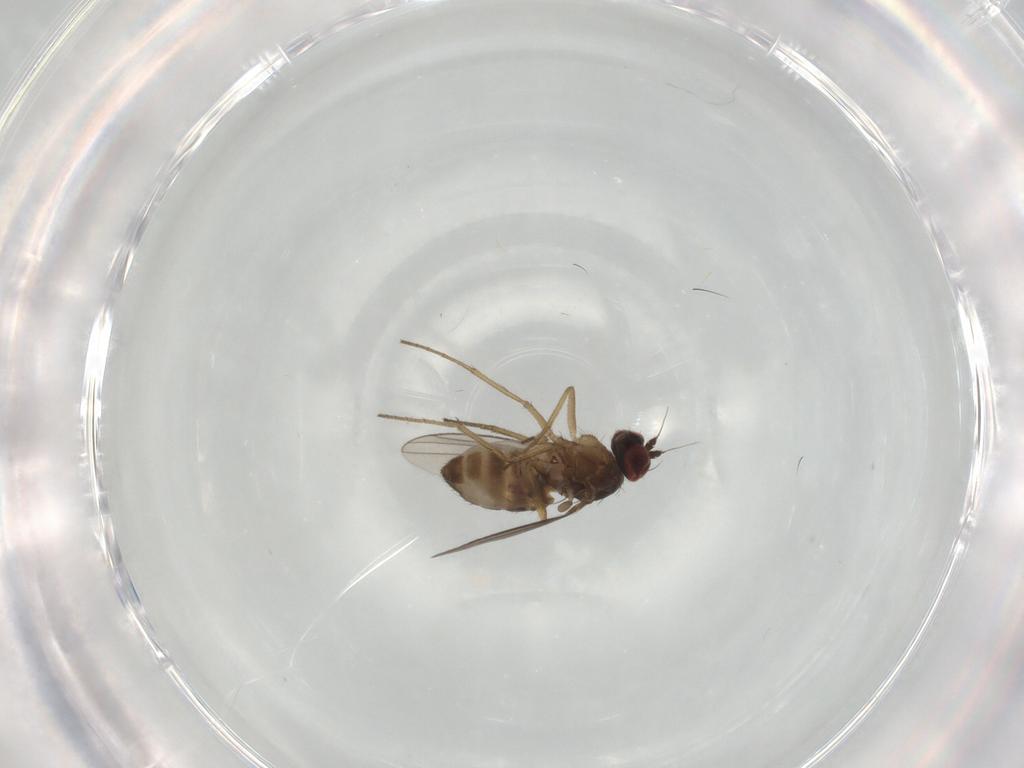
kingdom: Animalia
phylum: Arthropoda
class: Insecta
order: Diptera
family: Dolichopodidae
